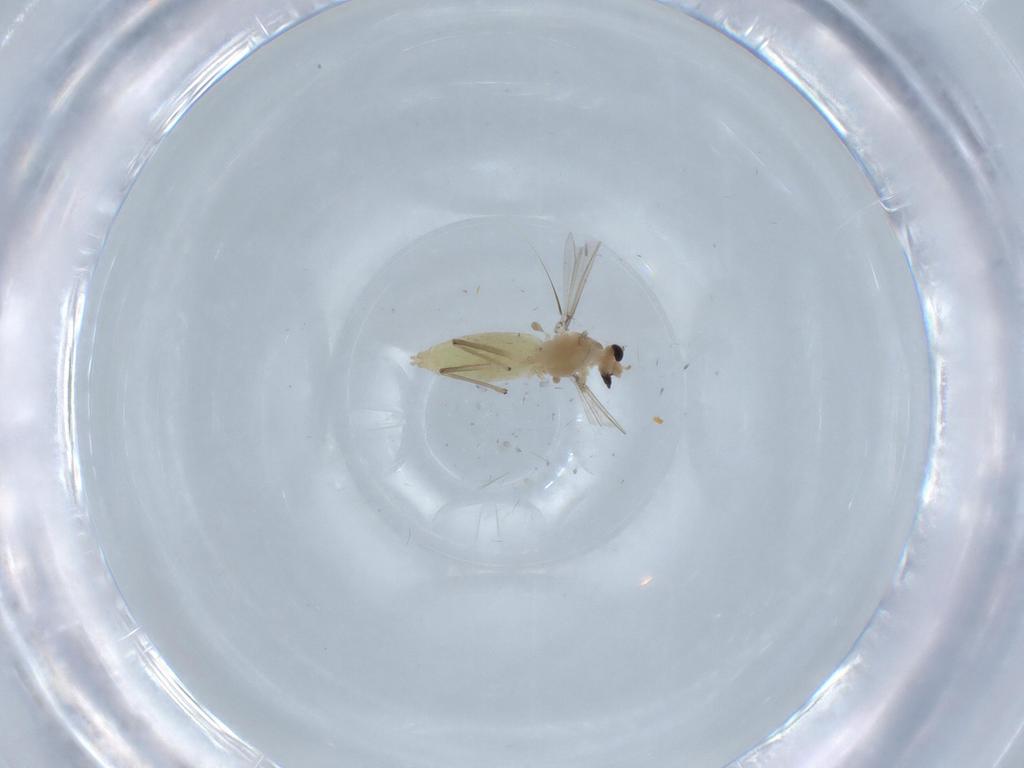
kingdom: Animalia
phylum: Arthropoda
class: Insecta
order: Diptera
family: Chironomidae
